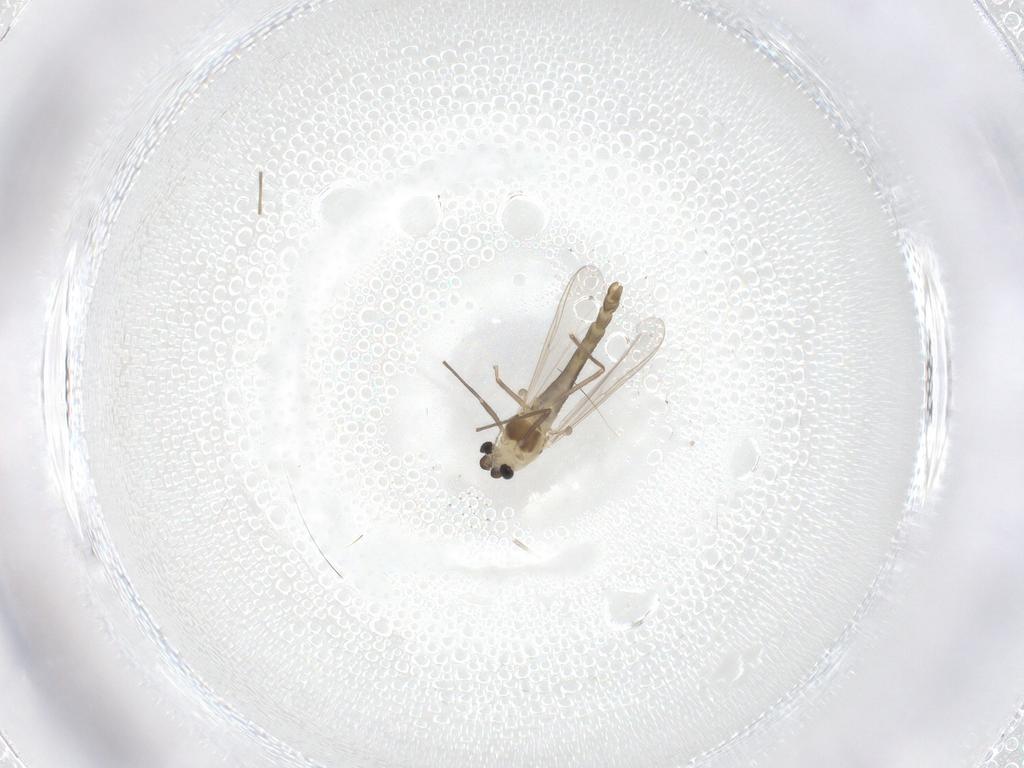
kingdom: Animalia
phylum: Arthropoda
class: Insecta
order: Diptera
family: Chironomidae
